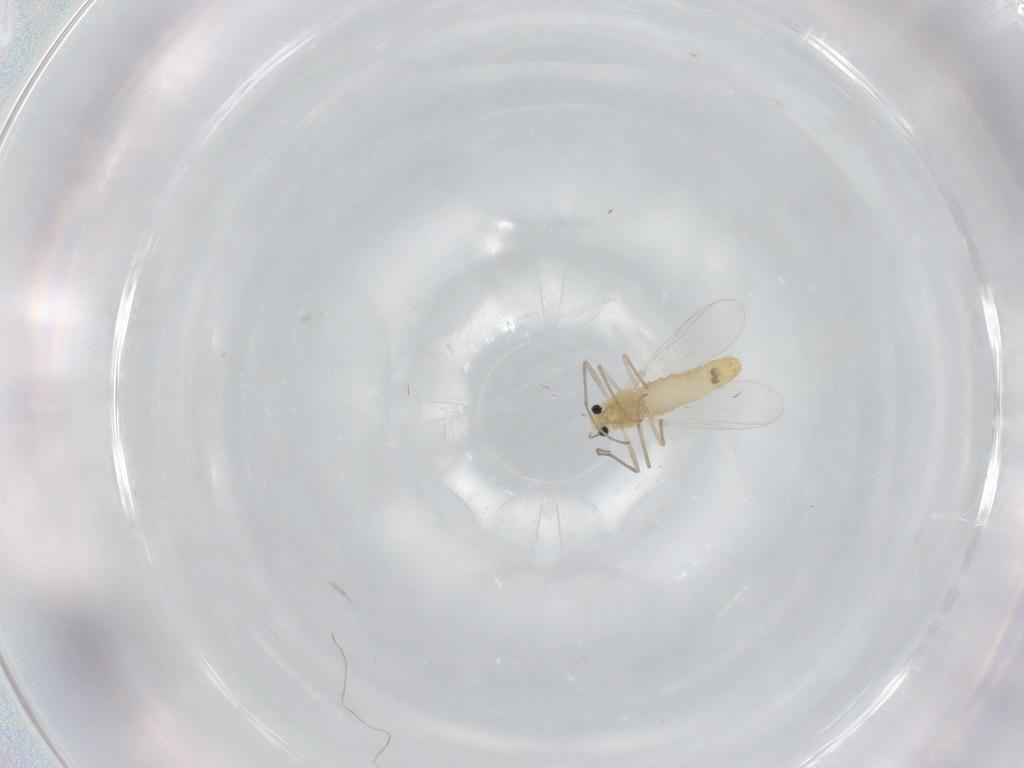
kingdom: Animalia
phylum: Arthropoda
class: Insecta
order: Diptera
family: Chironomidae
